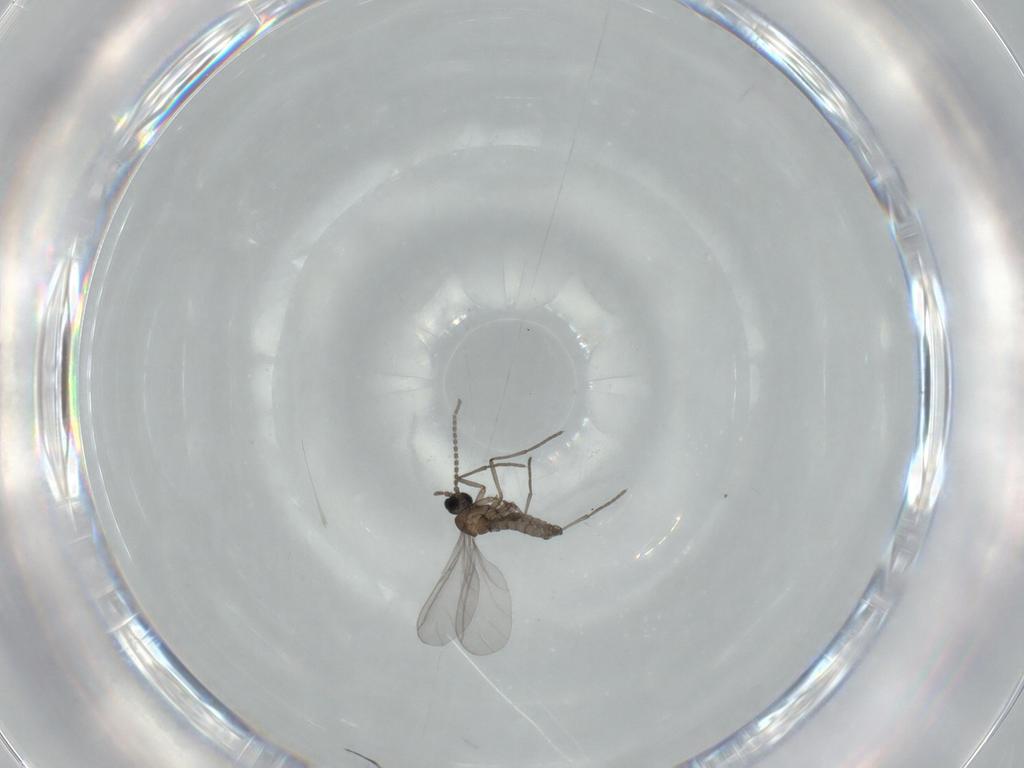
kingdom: Animalia
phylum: Arthropoda
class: Insecta
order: Diptera
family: Sciaridae
